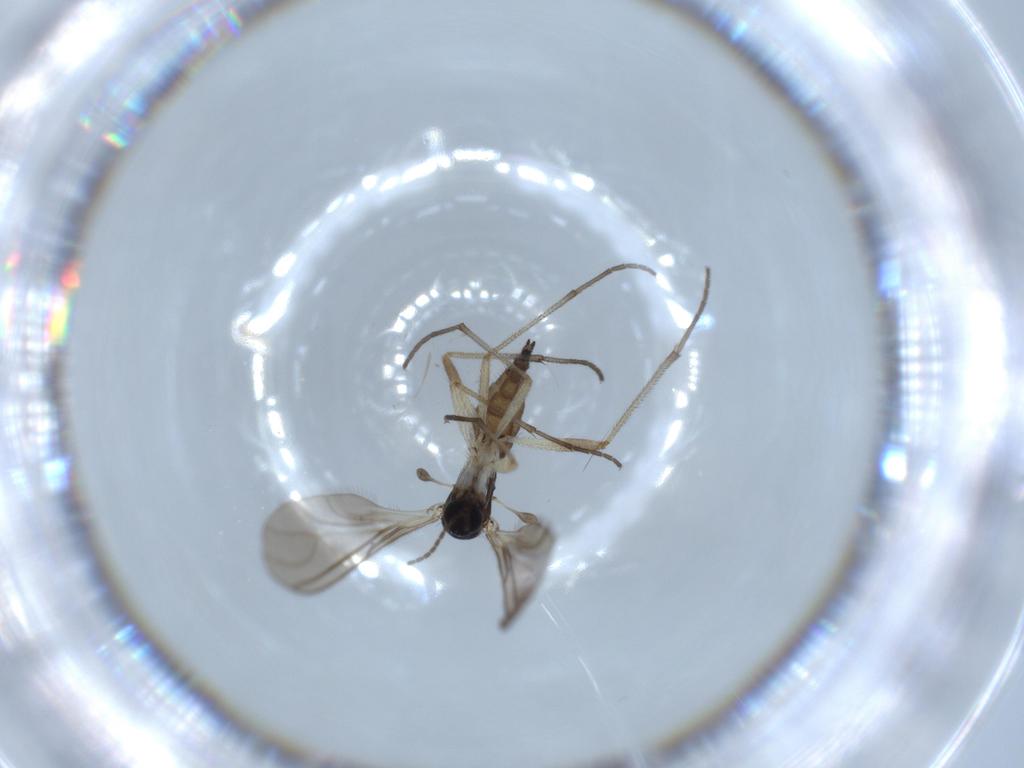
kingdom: Animalia
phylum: Arthropoda
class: Insecta
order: Diptera
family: Sciaridae
